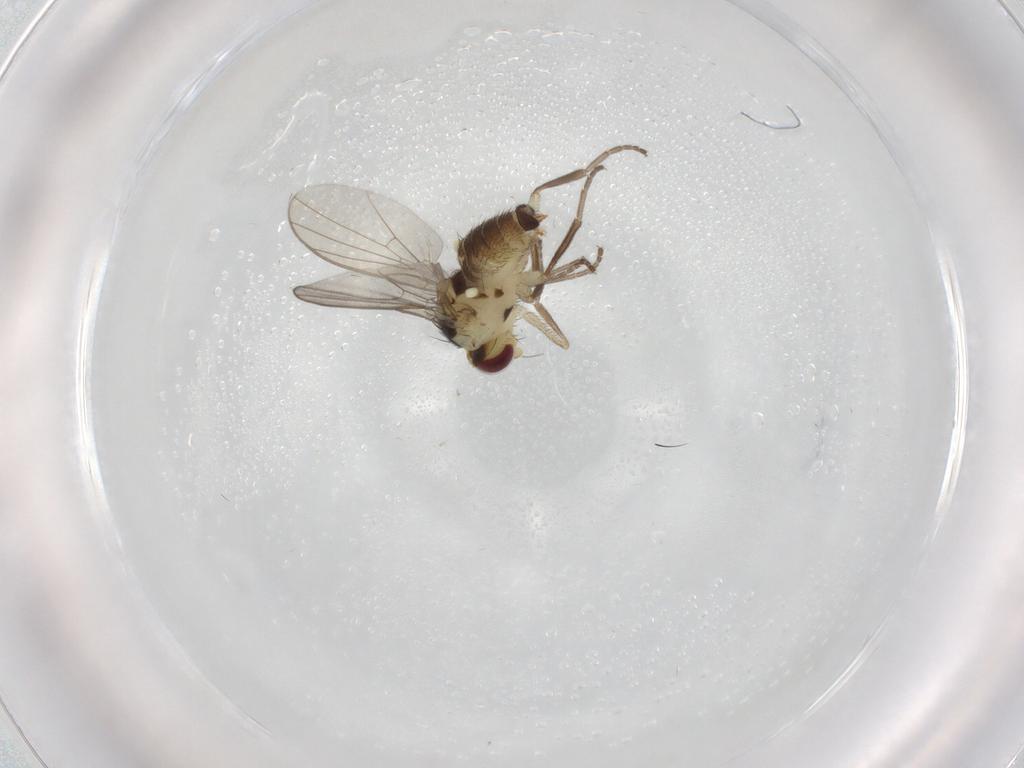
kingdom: Animalia
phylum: Arthropoda
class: Insecta
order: Diptera
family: Agromyzidae
